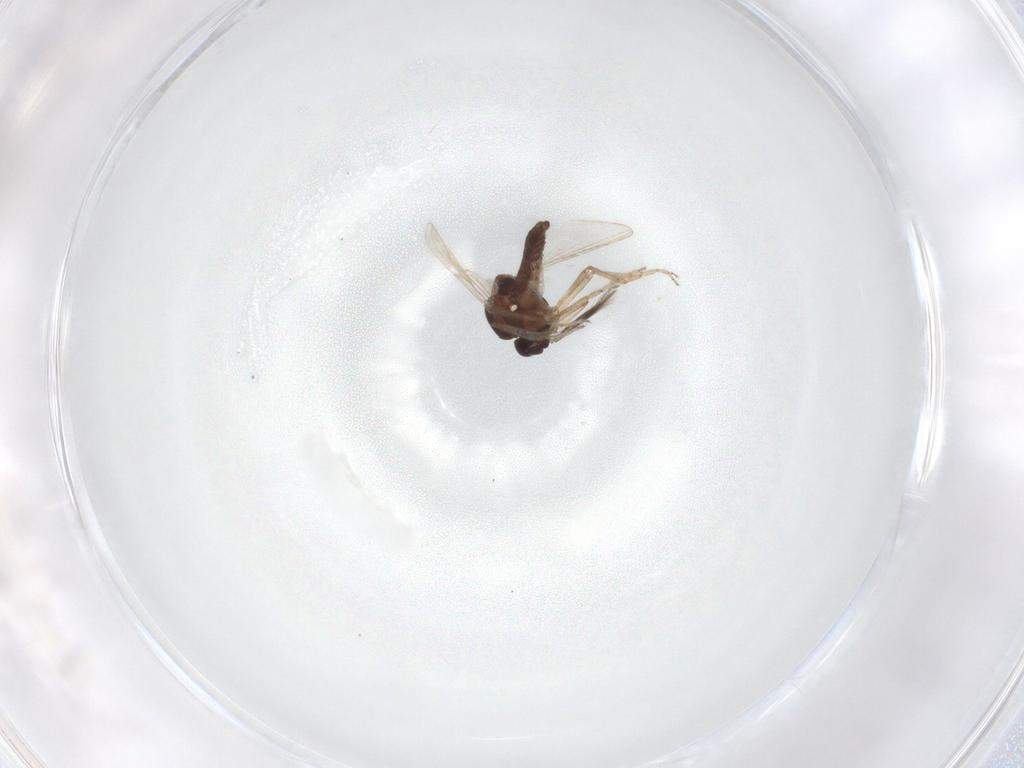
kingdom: Animalia
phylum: Arthropoda
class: Insecta
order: Diptera
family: Ceratopogonidae
